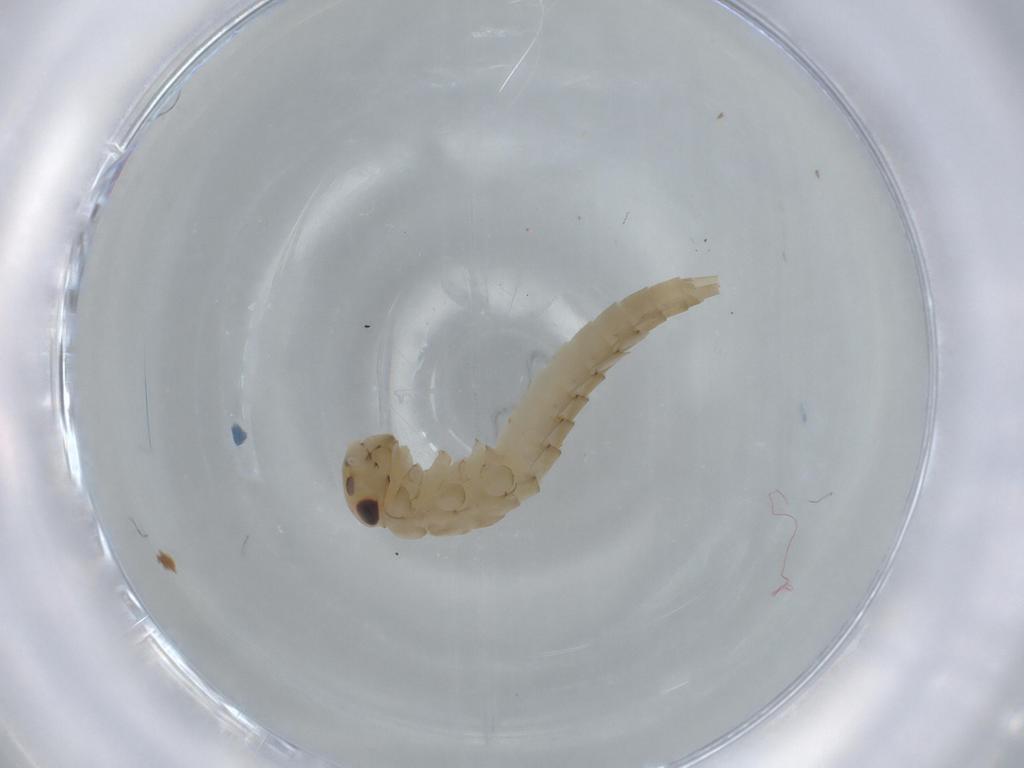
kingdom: Animalia
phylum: Arthropoda
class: Insecta
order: Ephemeroptera
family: Baetidae
